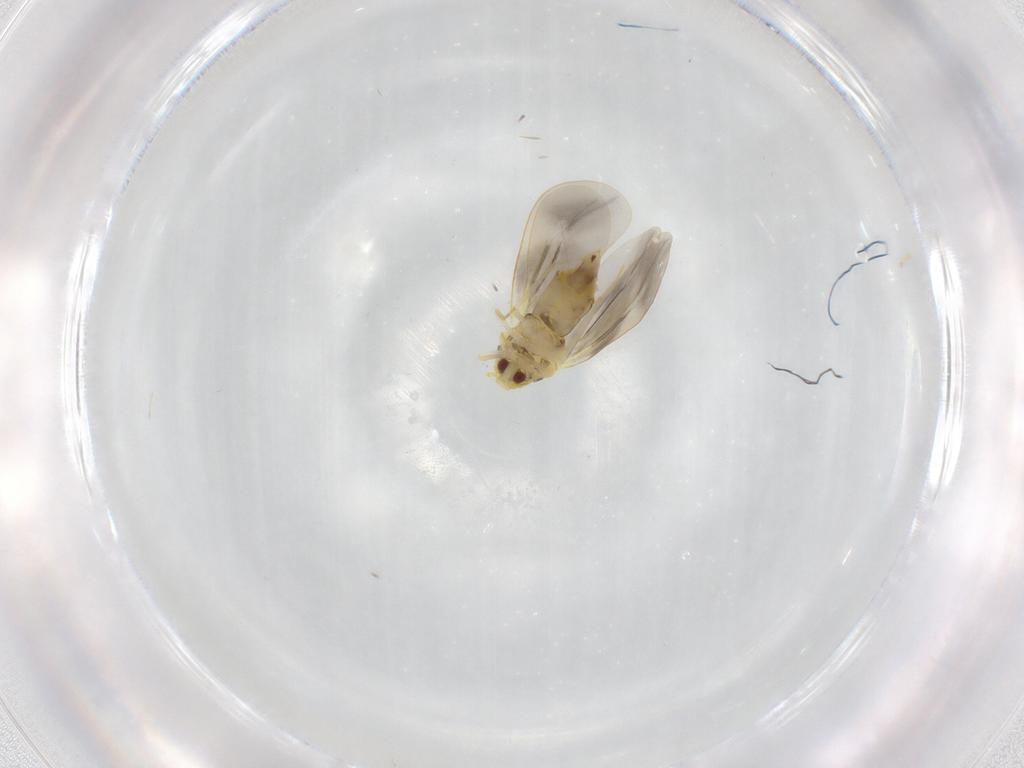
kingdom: Animalia
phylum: Arthropoda
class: Insecta
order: Hemiptera
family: Aleyrodidae
